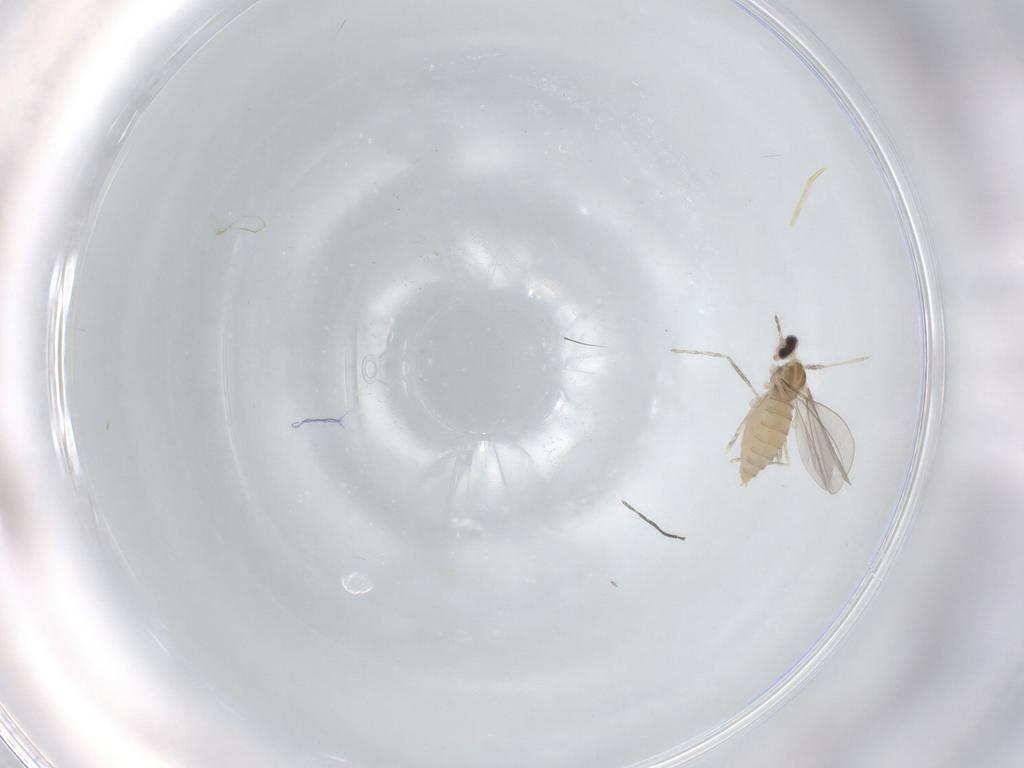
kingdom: Animalia
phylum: Arthropoda
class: Insecta
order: Diptera
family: Cecidomyiidae
